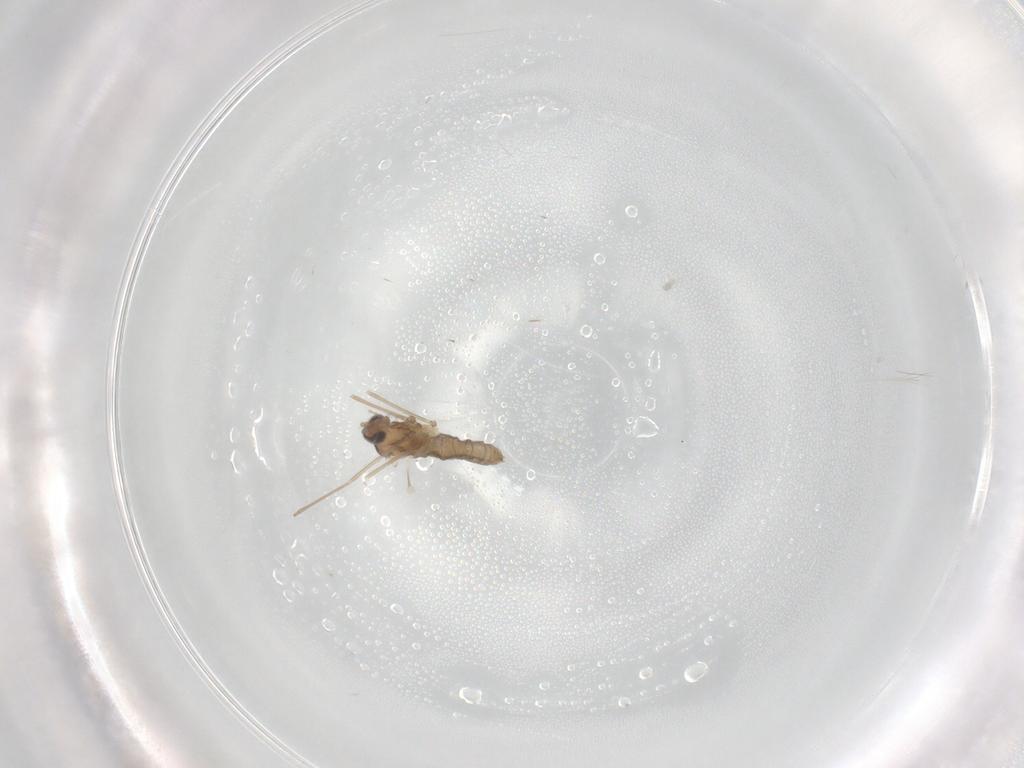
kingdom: Animalia
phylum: Arthropoda
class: Insecta
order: Diptera
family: Cecidomyiidae
